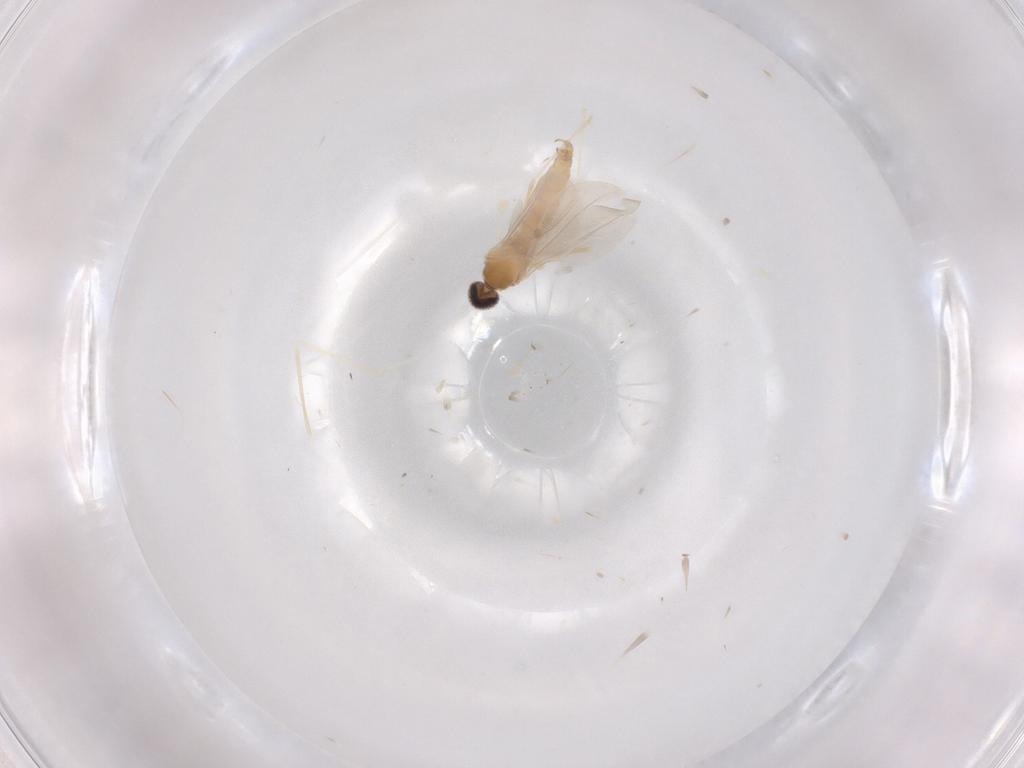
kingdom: Animalia
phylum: Arthropoda
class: Insecta
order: Diptera
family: Cecidomyiidae
